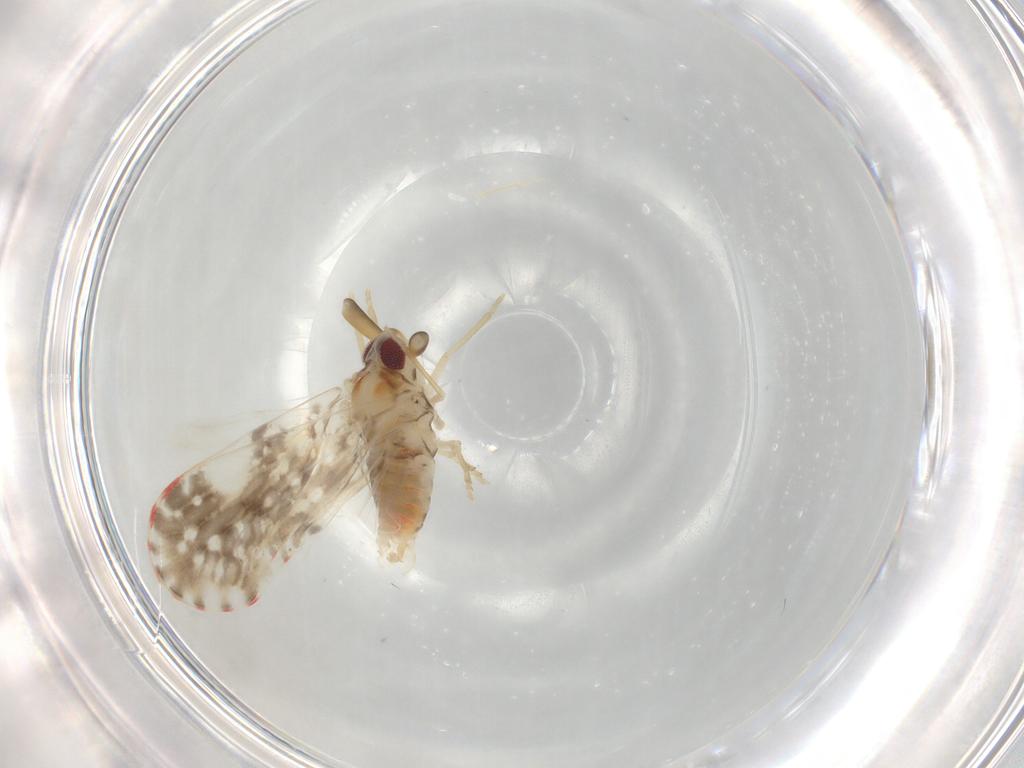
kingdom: Animalia
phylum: Arthropoda
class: Insecta
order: Hemiptera
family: Derbidae
